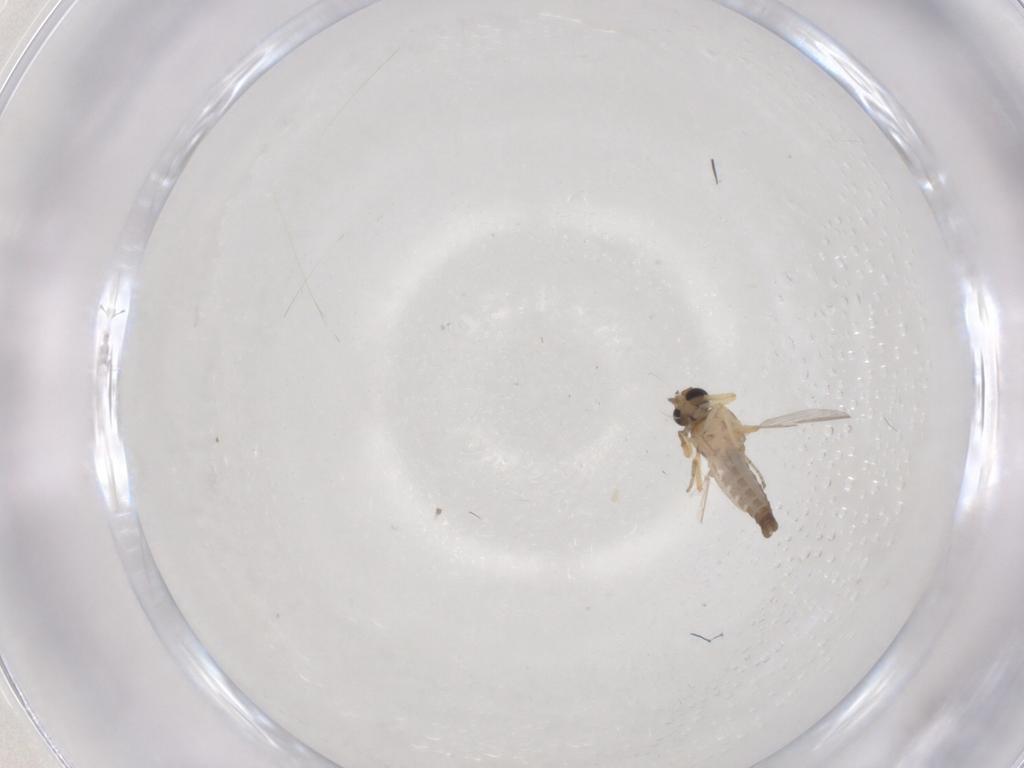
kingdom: Animalia
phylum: Arthropoda
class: Insecta
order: Diptera
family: Ceratopogonidae
